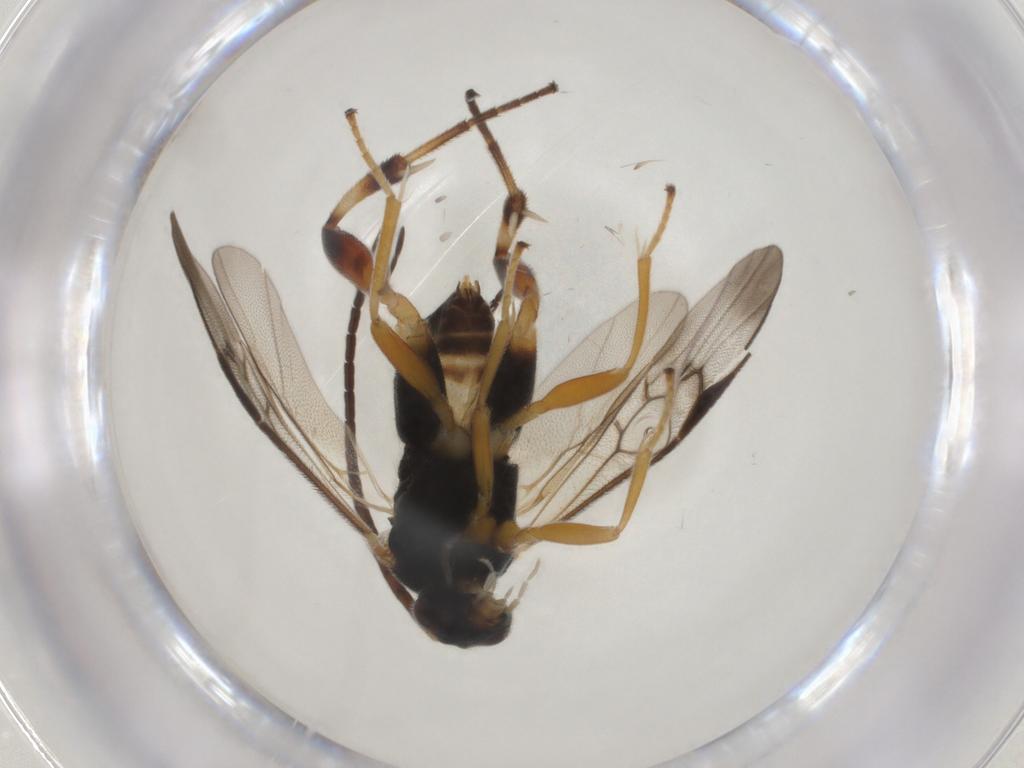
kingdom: Animalia
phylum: Arthropoda
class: Insecta
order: Hymenoptera
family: Braconidae
